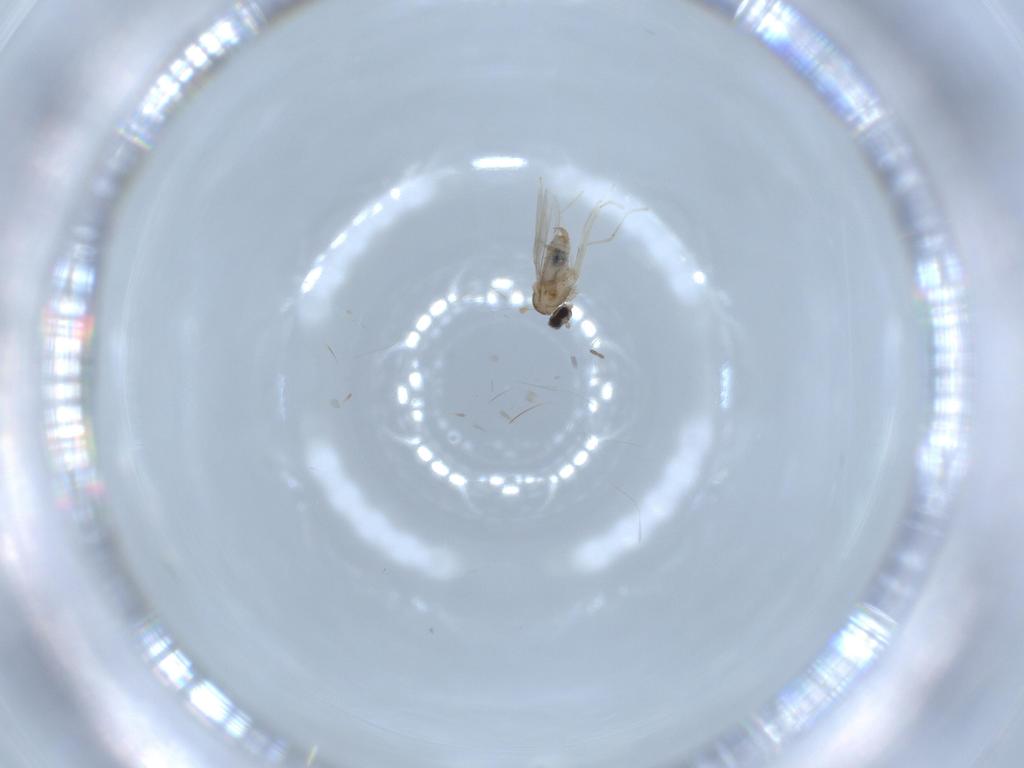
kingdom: Animalia
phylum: Arthropoda
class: Insecta
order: Diptera
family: Cecidomyiidae
